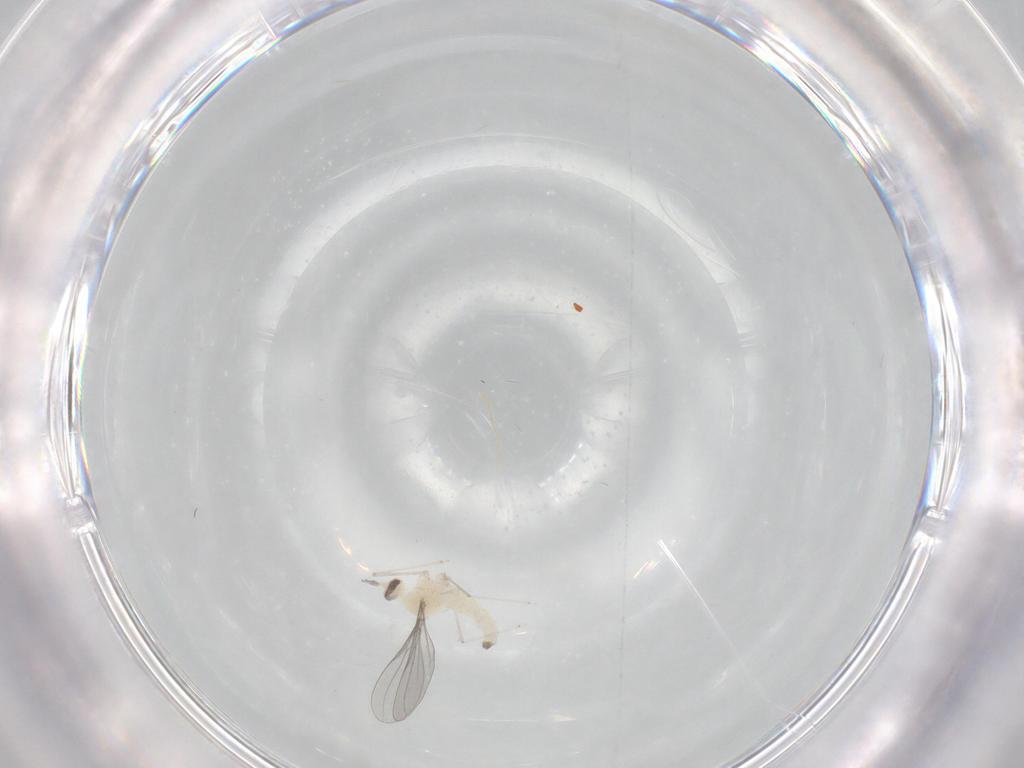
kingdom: Animalia
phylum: Arthropoda
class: Insecta
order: Diptera
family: Cecidomyiidae
